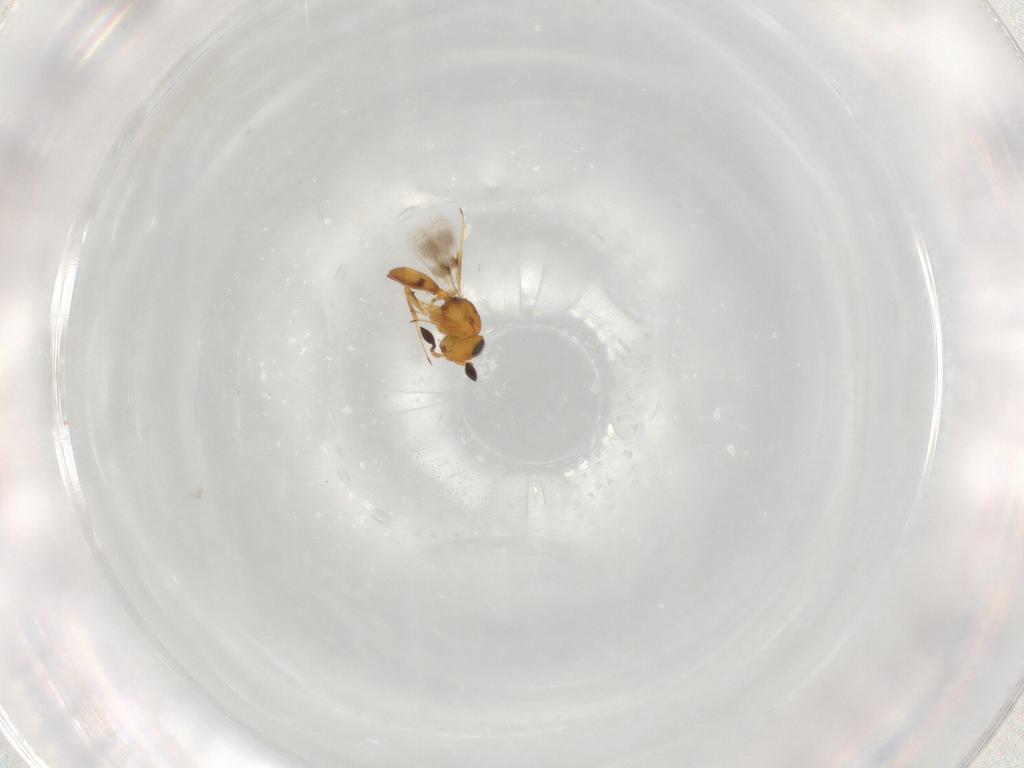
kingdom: Animalia
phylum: Arthropoda
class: Insecta
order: Hymenoptera
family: Scelionidae
